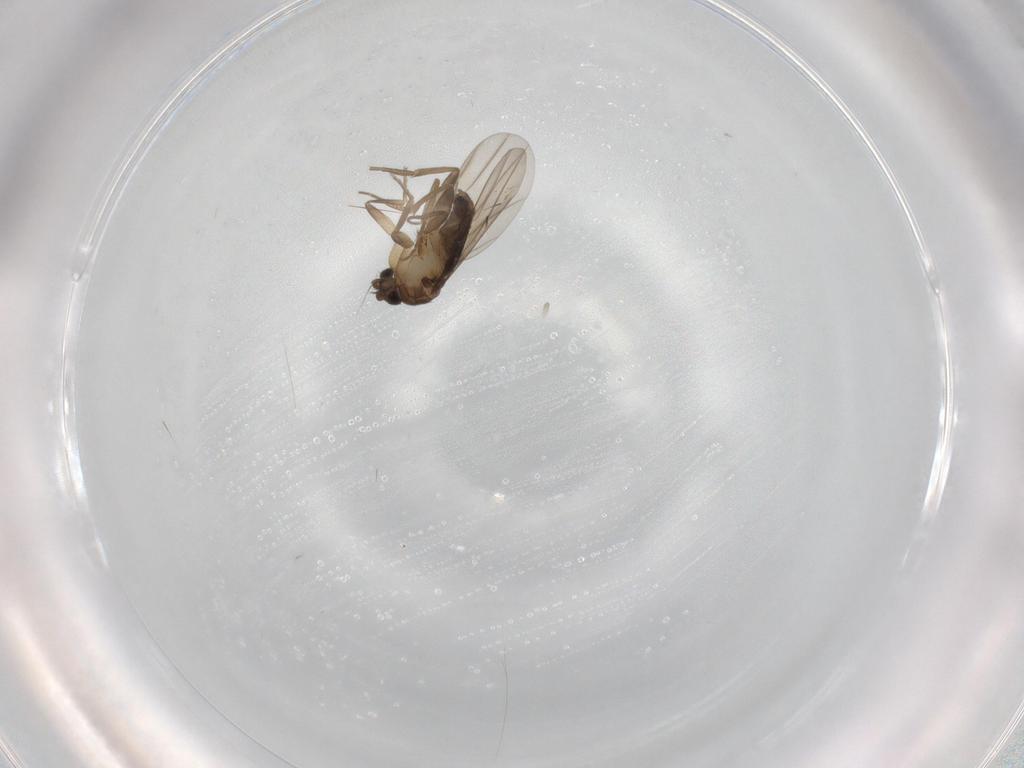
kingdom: Animalia
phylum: Arthropoda
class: Insecta
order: Diptera
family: Phoridae
